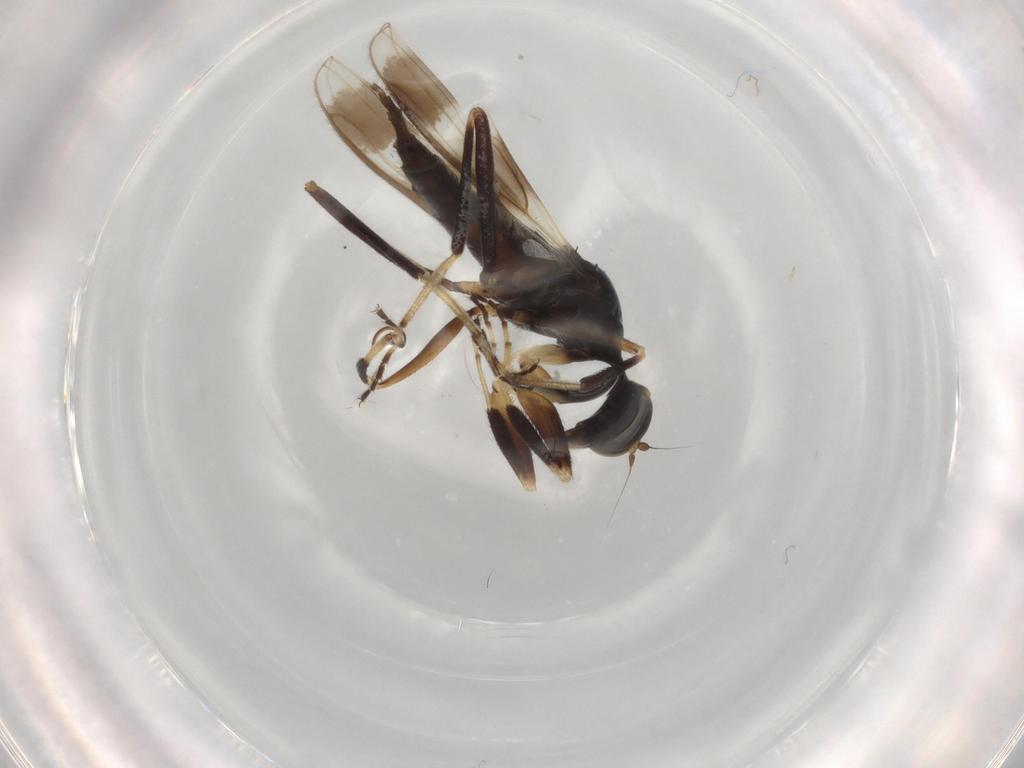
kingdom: Animalia
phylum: Arthropoda
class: Insecta
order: Diptera
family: Hybotidae
